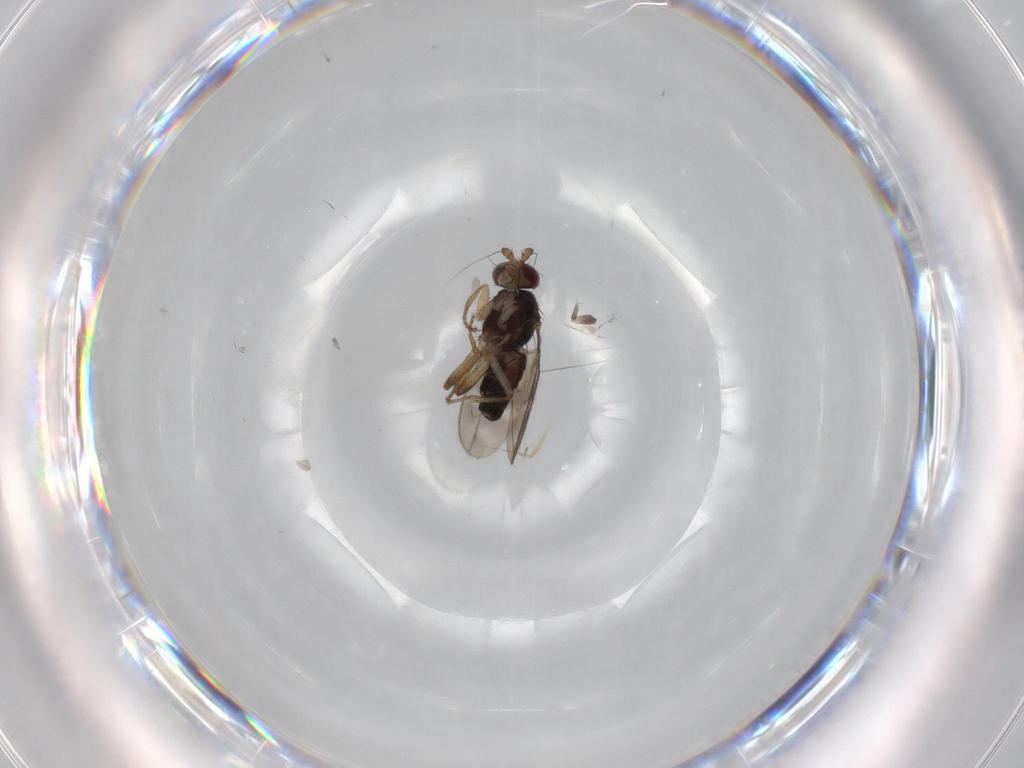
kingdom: Animalia
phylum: Arthropoda
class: Insecta
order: Diptera
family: Sphaeroceridae
